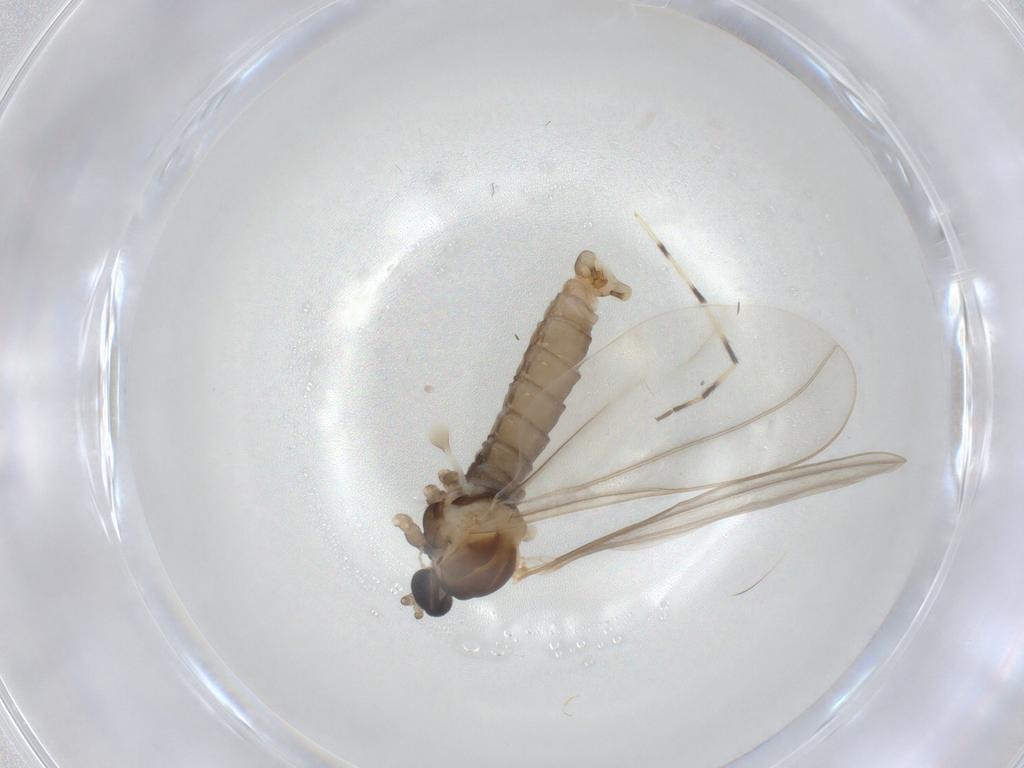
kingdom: Animalia
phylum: Arthropoda
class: Insecta
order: Diptera
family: Cecidomyiidae
